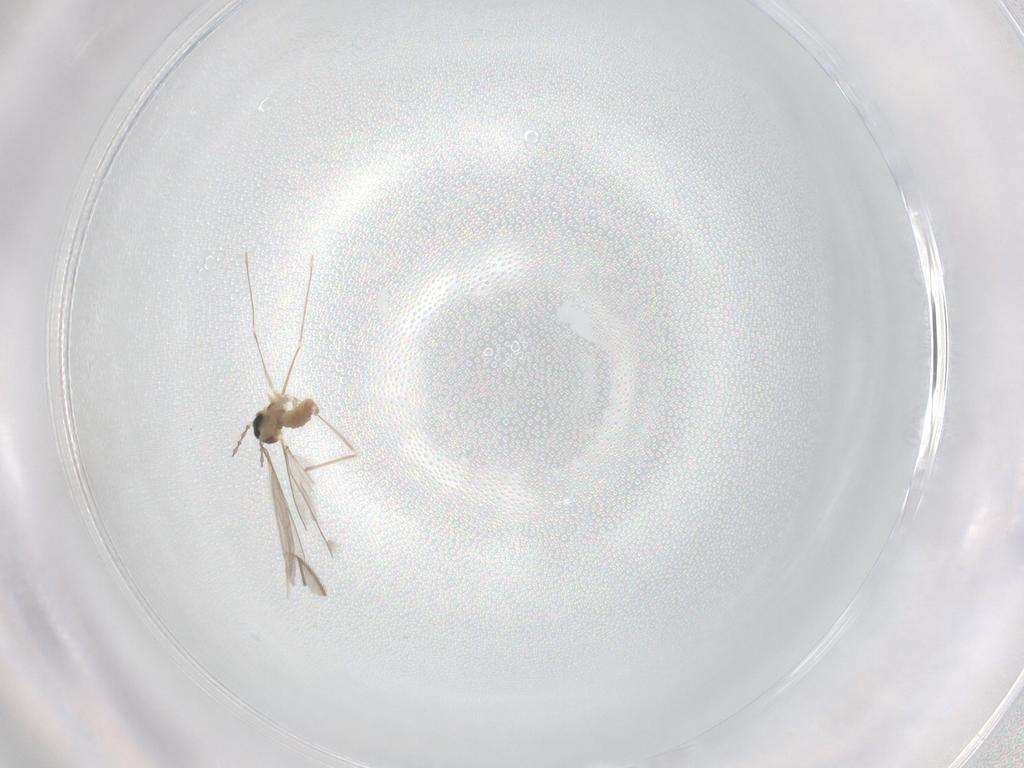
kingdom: Animalia
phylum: Arthropoda
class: Insecta
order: Diptera
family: Cecidomyiidae
